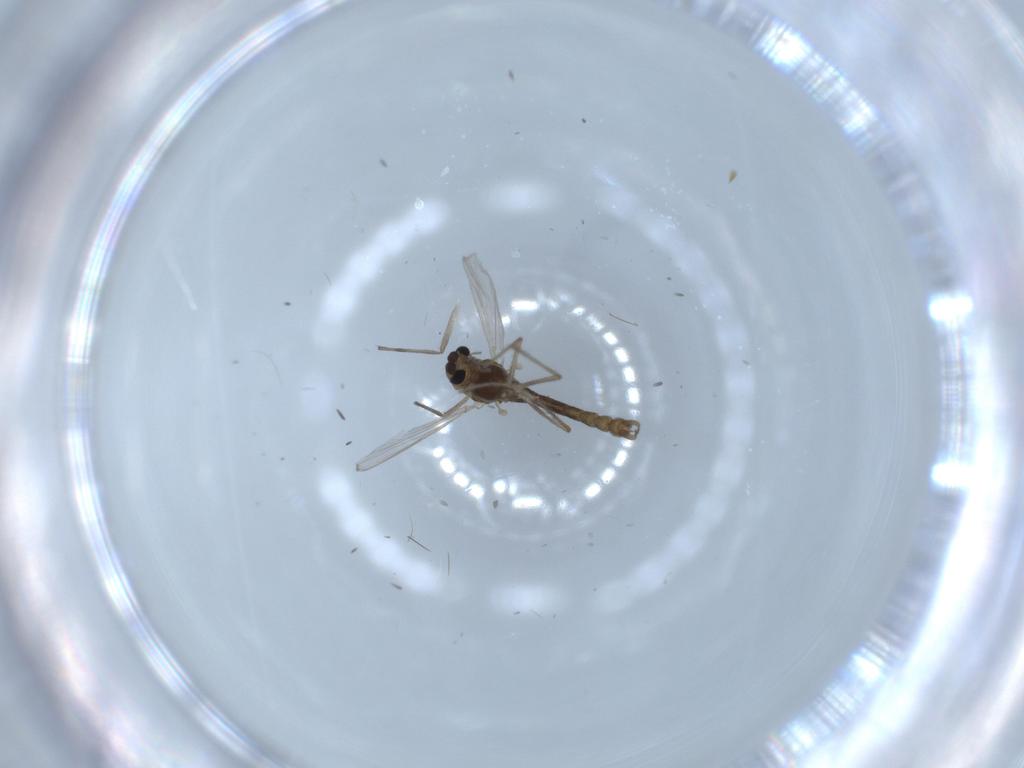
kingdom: Animalia
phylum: Arthropoda
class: Insecta
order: Diptera
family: Chironomidae
